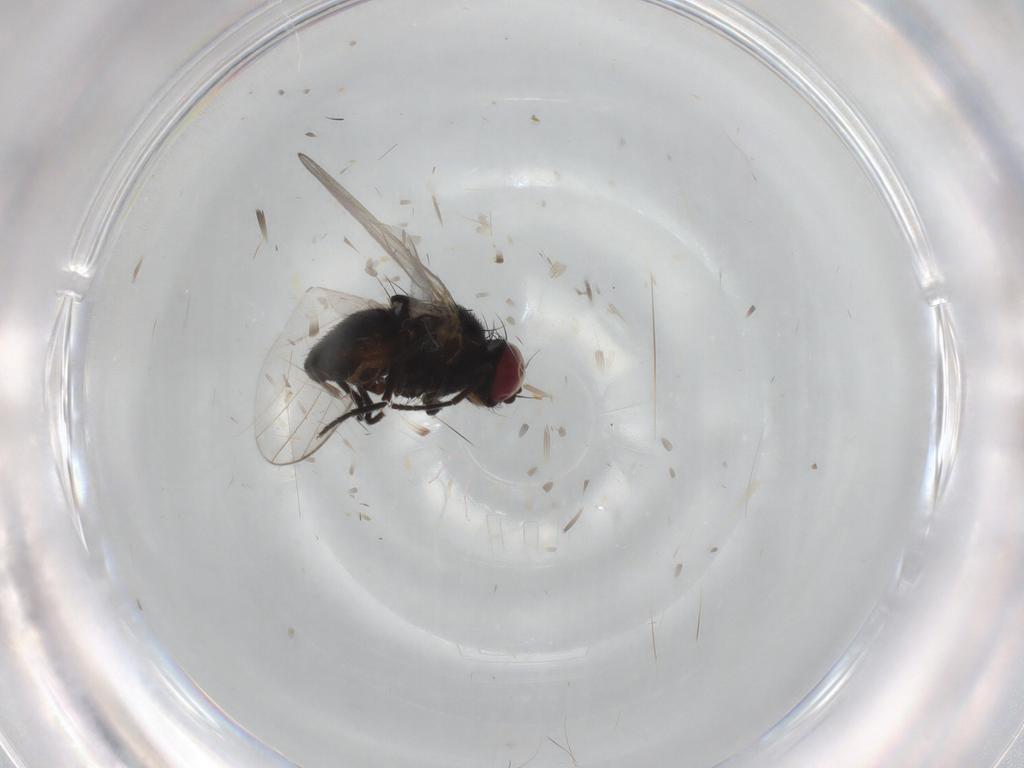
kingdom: Animalia
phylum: Arthropoda
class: Insecta
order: Diptera
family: Agromyzidae
